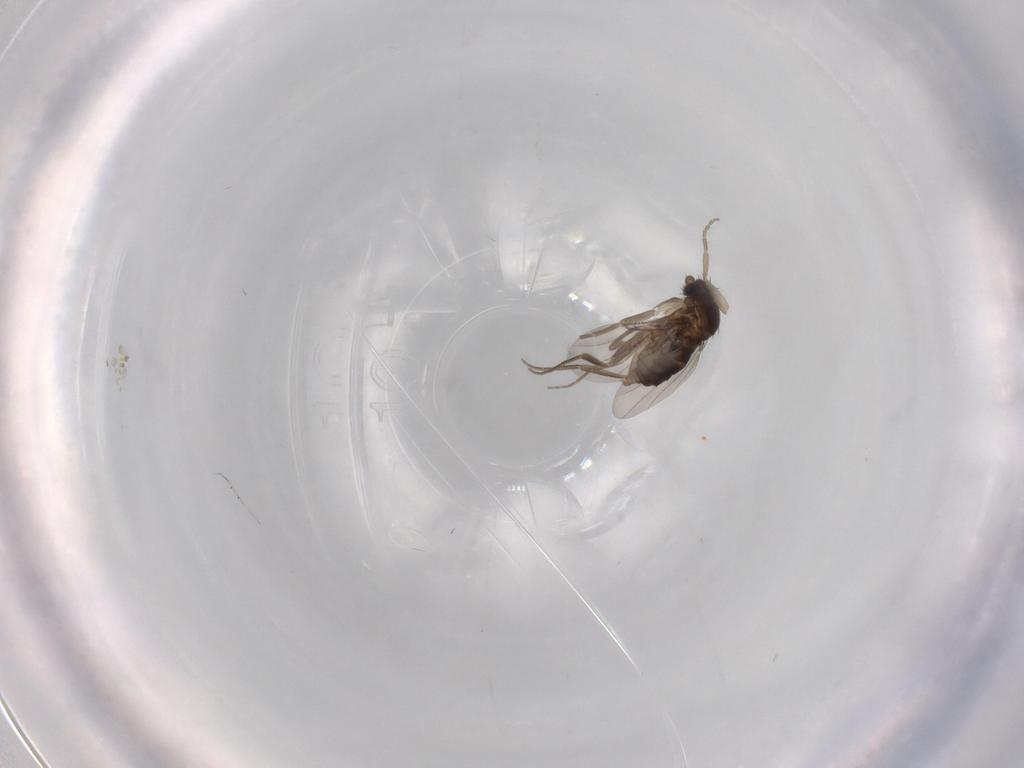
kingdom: Animalia
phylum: Arthropoda
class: Insecta
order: Diptera
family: Phoridae
